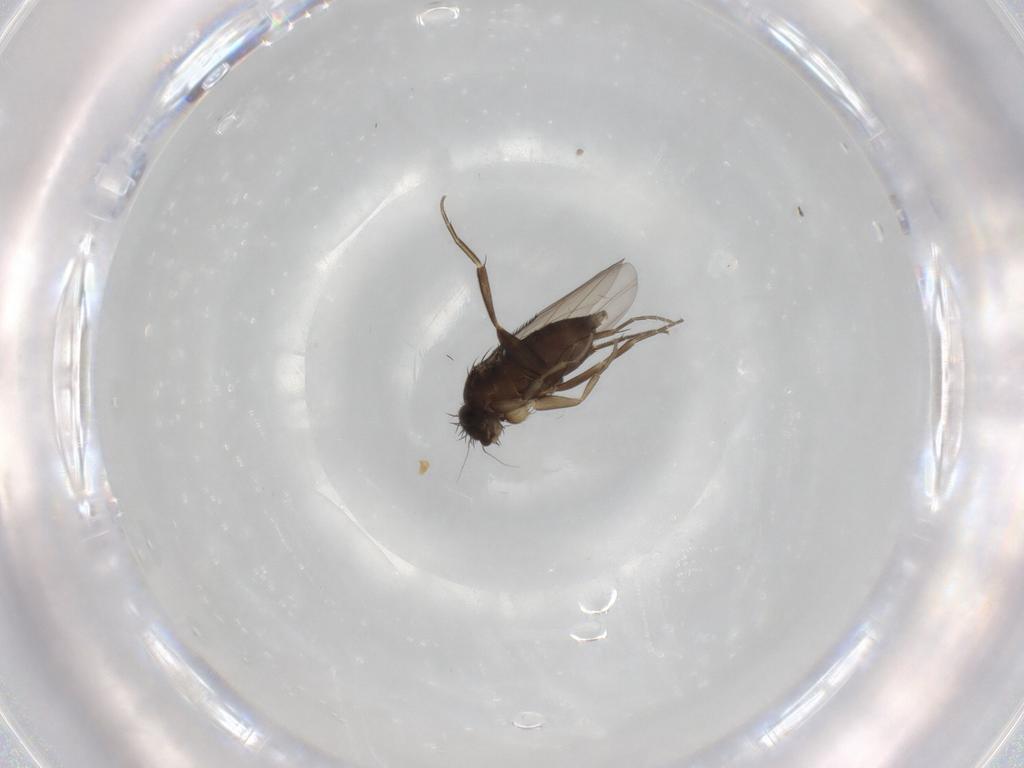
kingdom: Animalia
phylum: Arthropoda
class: Insecta
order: Diptera
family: Phoridae
